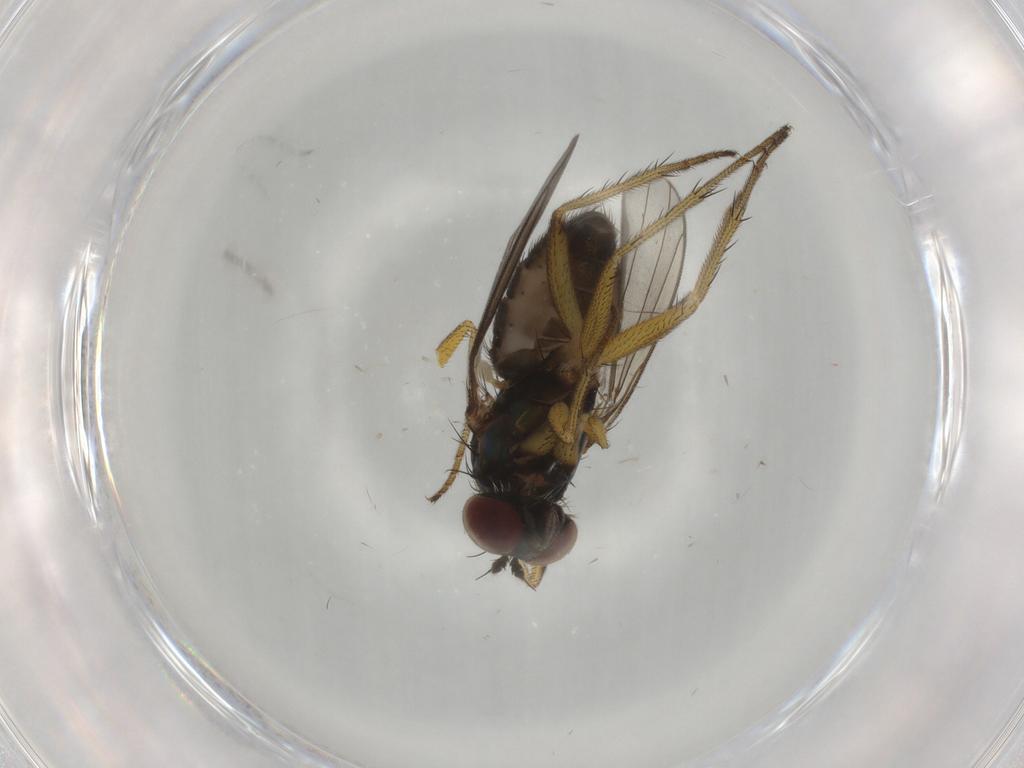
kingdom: Animalia
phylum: Arthropoda
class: Insecta
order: Diptera
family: Dolichopodidae
